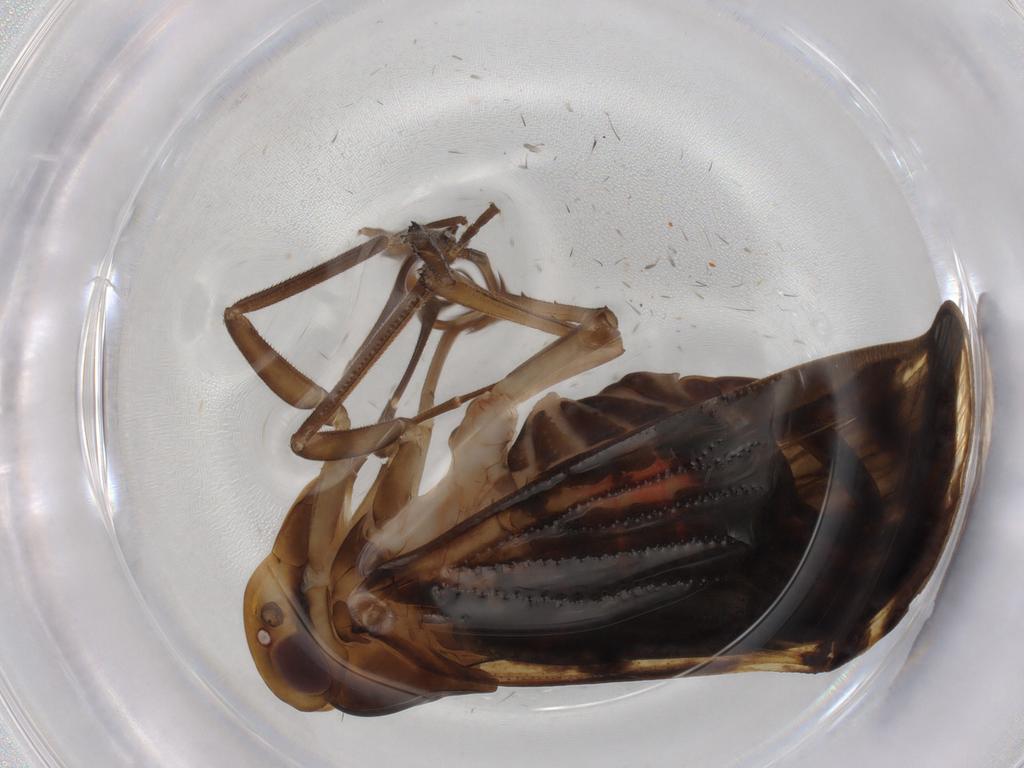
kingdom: Animalia
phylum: Arthropoda
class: Insecta
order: Hemiptera
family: Cixiidae
